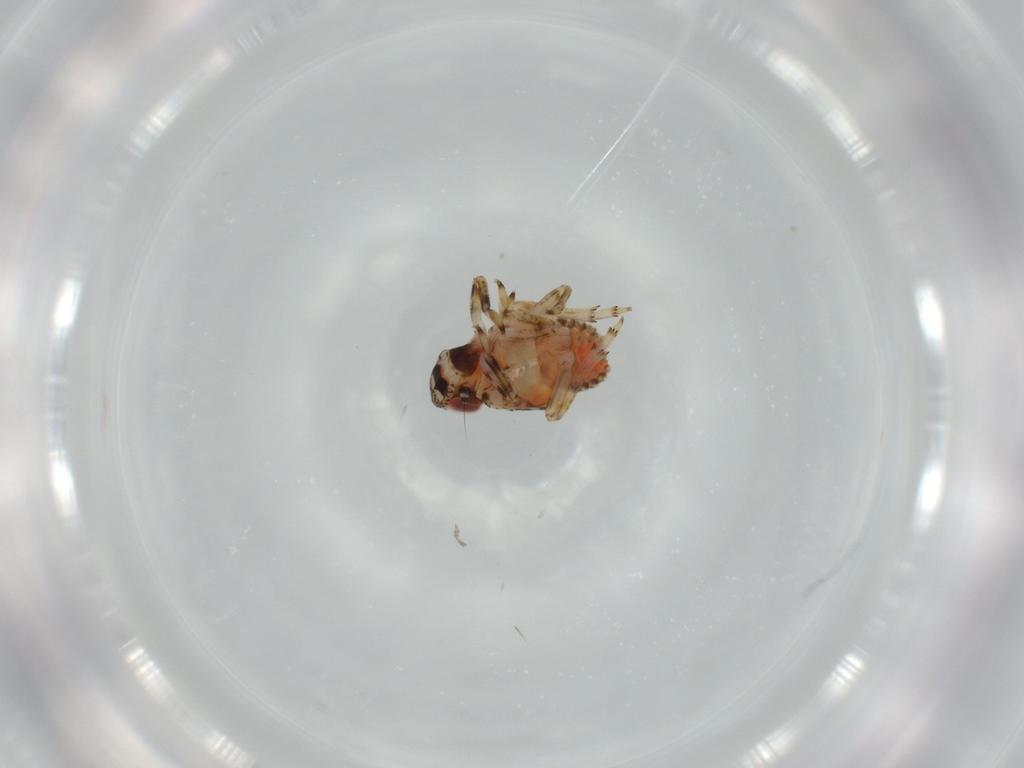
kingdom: Animalia
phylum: Arthropoda
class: Insecta
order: Hemiptera
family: Issidae
